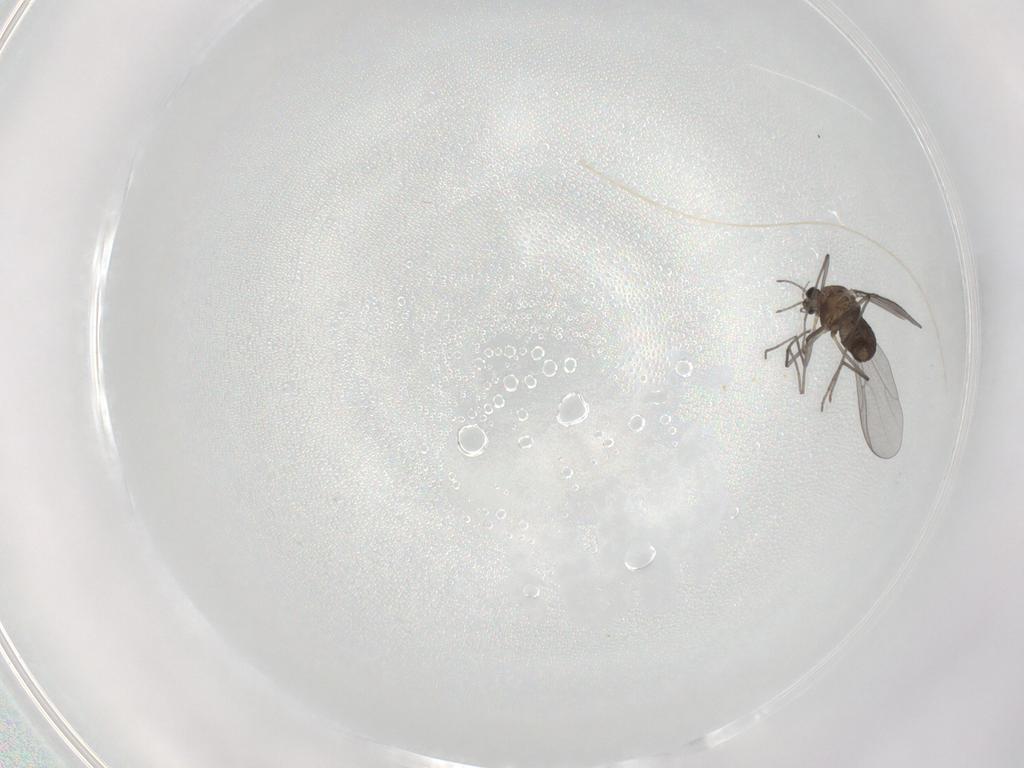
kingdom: Animalia
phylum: Arthropoda
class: Insecta
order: Diptera
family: Chironomidae
